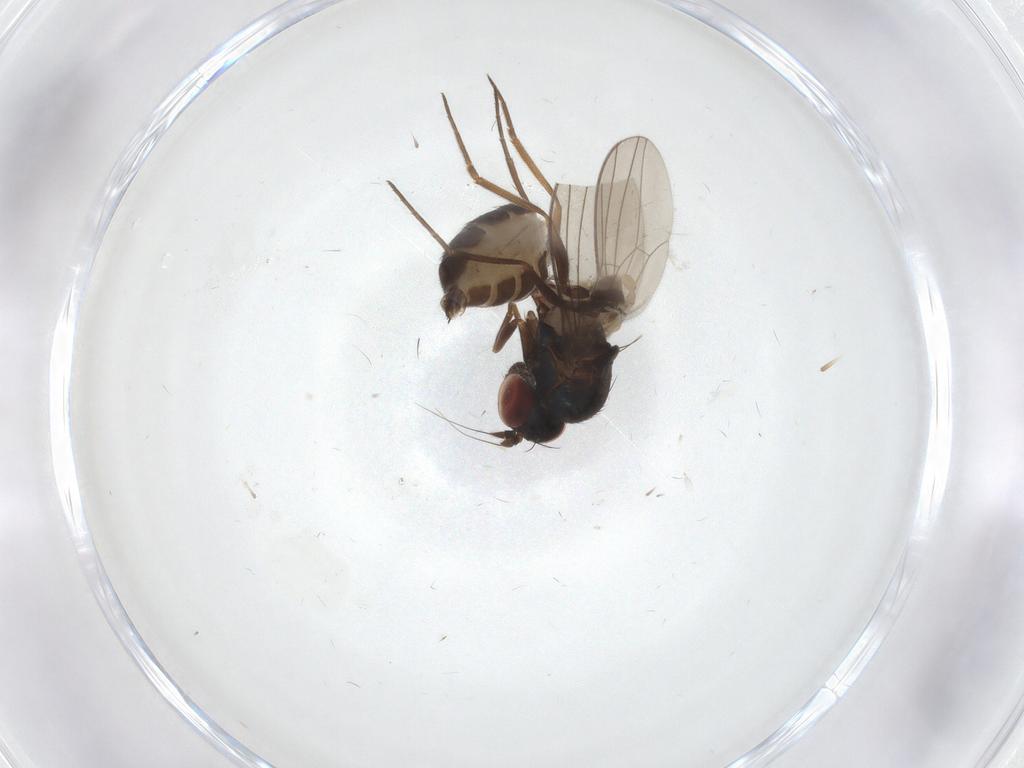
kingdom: Animalia
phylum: Arthropoda
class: Insecta
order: Diptera
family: Dolichopodidae
